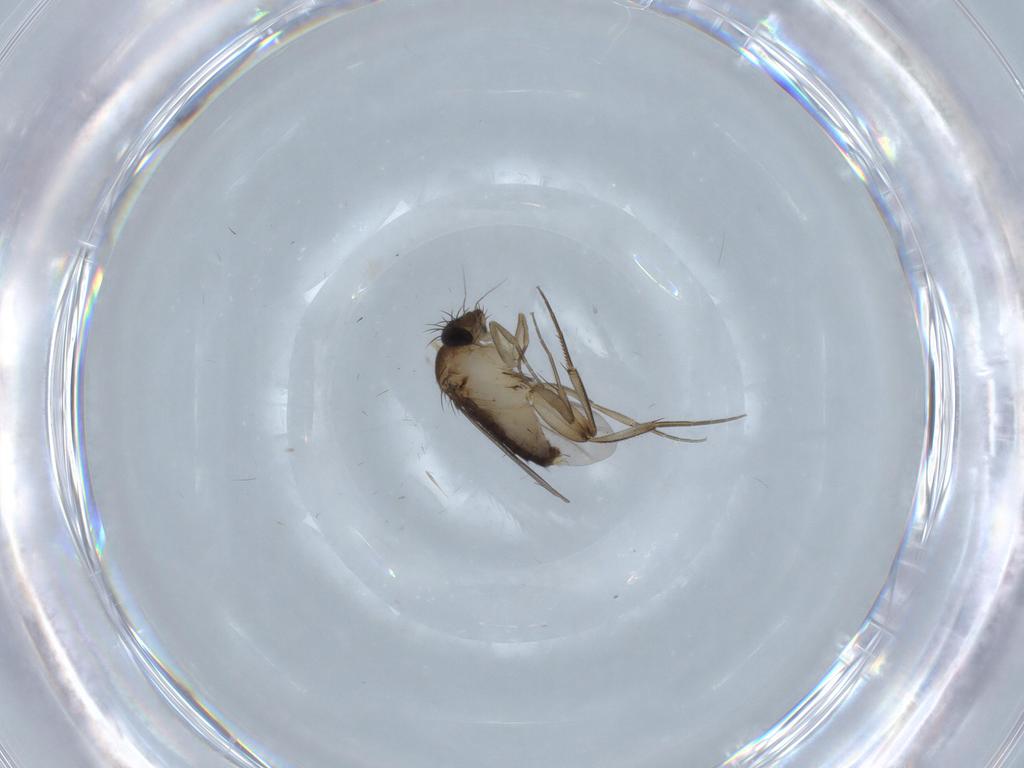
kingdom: Animalia
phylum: Arthropoda
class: Insecta
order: Diptera
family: Phoridae
